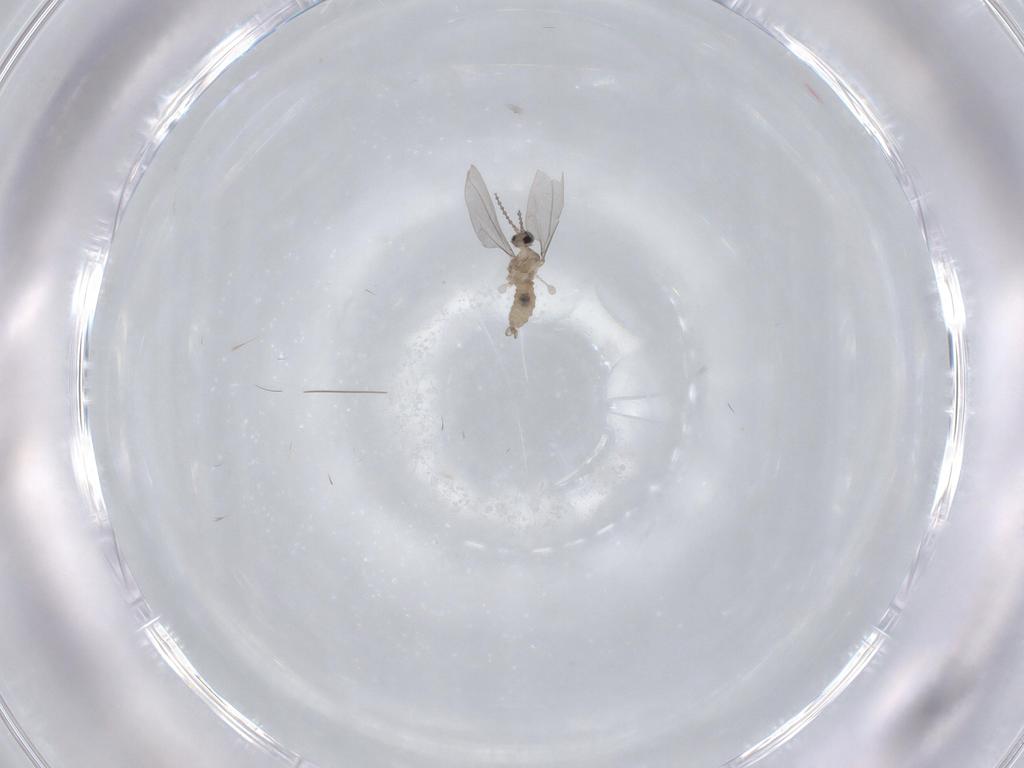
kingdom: Animalia
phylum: Arthropoda
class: Insecta
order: Diptera
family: Cecidomyiidae
